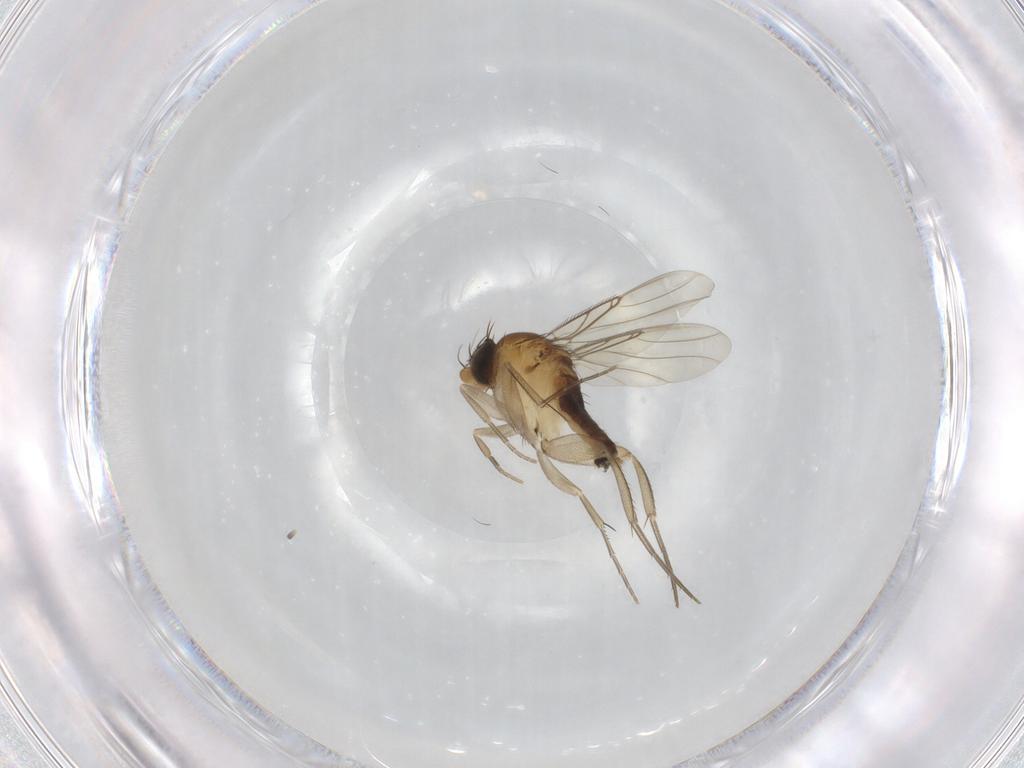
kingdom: Animalia
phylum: Arthropoda
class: Insecta
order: Diptera
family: Phoridae
